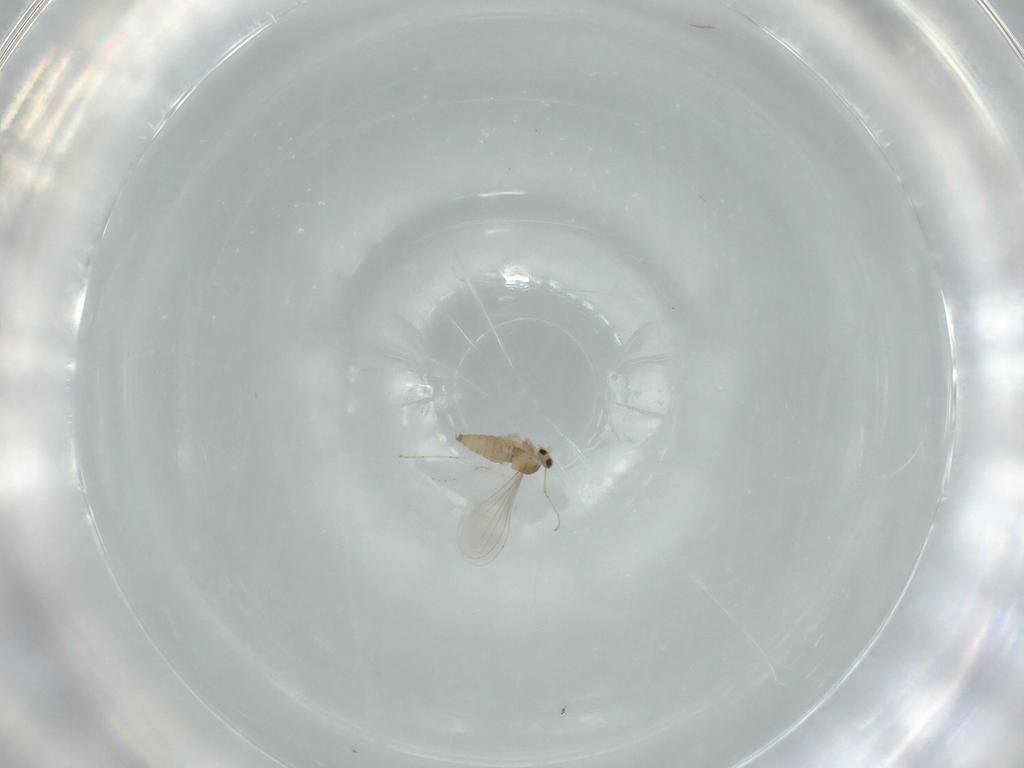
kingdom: Animalia
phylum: Arthropoda
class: Insecta
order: Diptera
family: Cecidomyiidae
